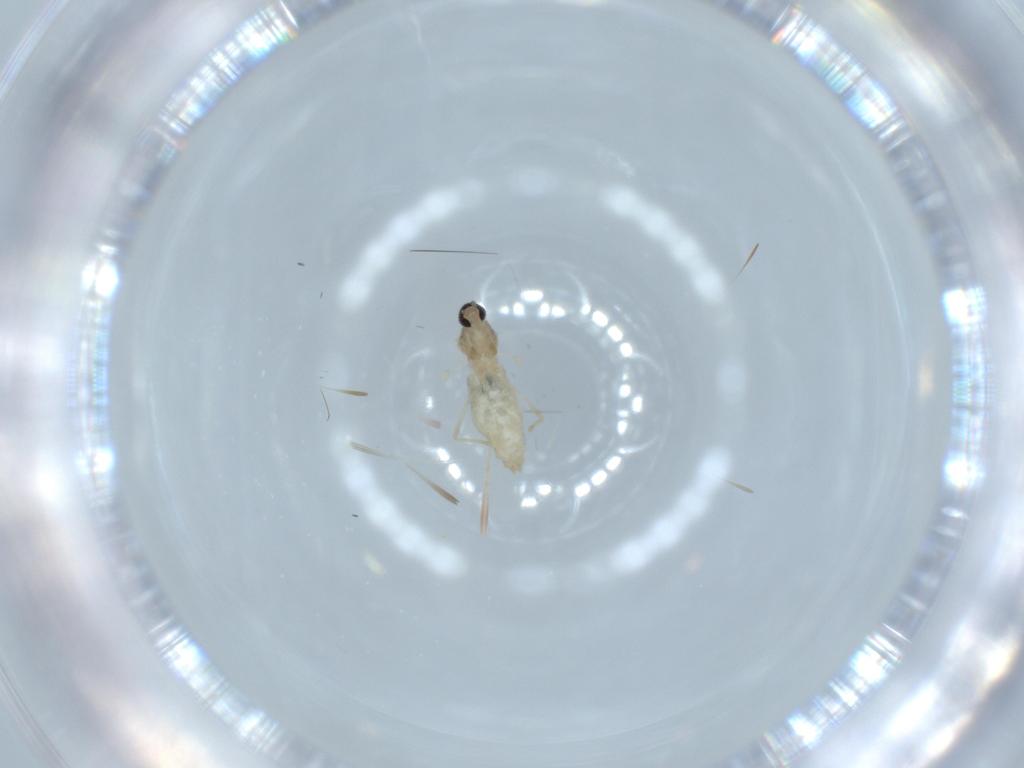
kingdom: Animalia
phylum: Arthropoda
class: Insecta
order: Diptera
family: Cecidomyiidae
